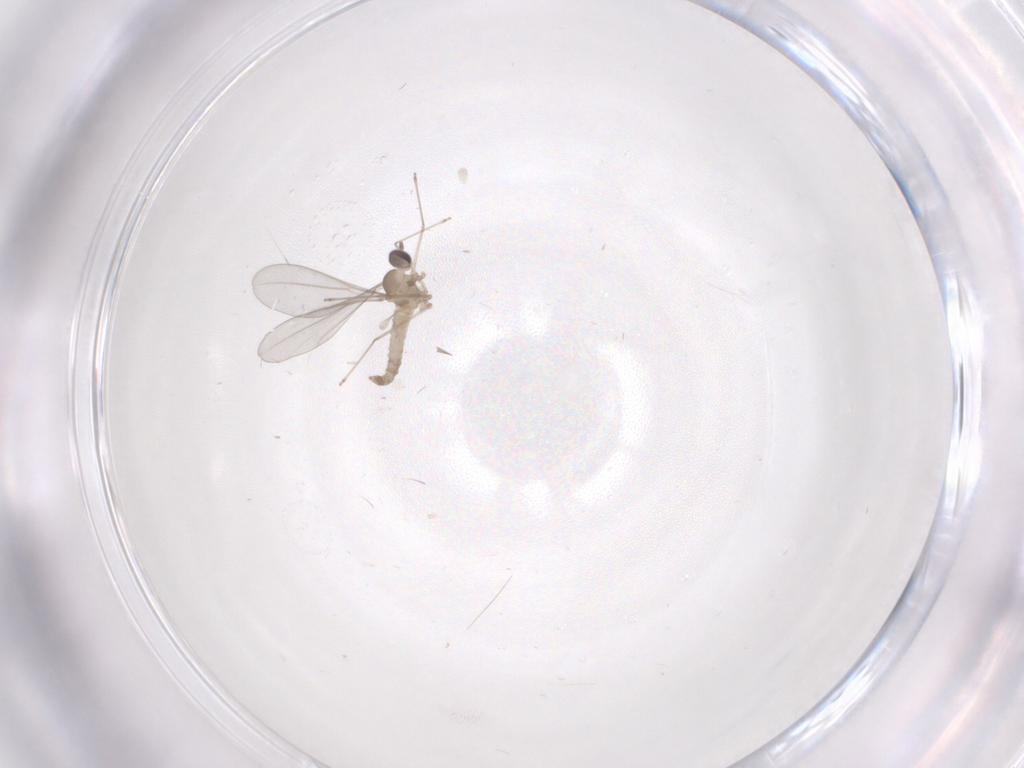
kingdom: Animalia
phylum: Arthropoda
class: Insecta
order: Diptera
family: Cecidomyiidae
